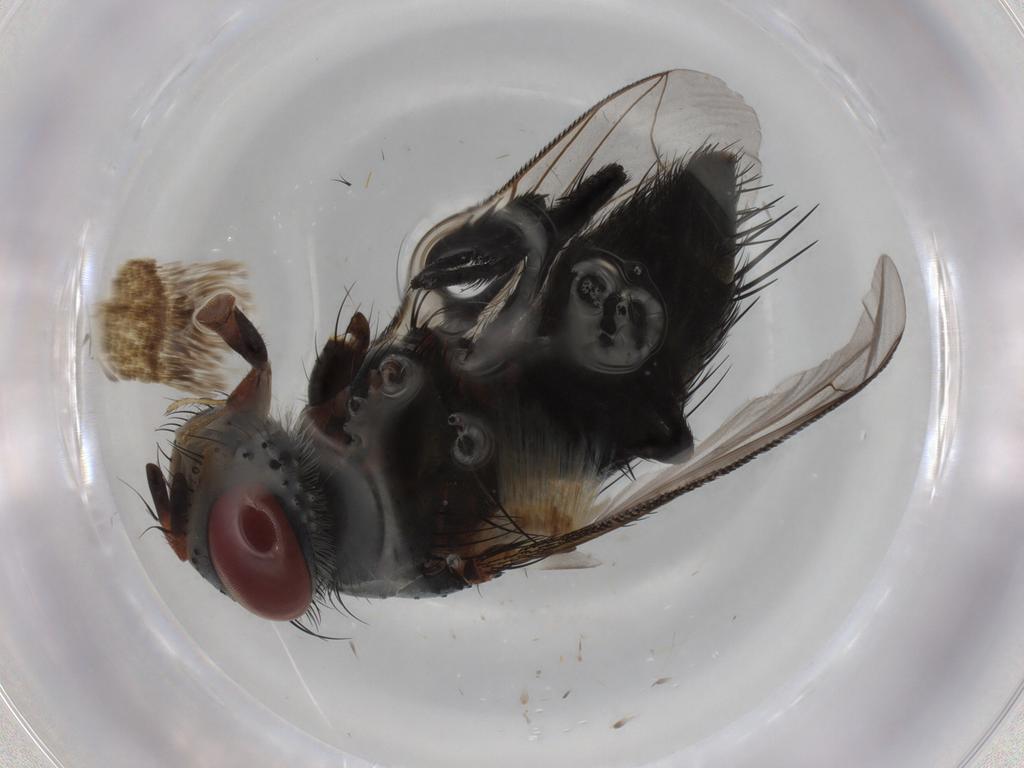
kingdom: Animalia
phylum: Arthropoda
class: Insecta
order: Diptera
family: Tachinidae
